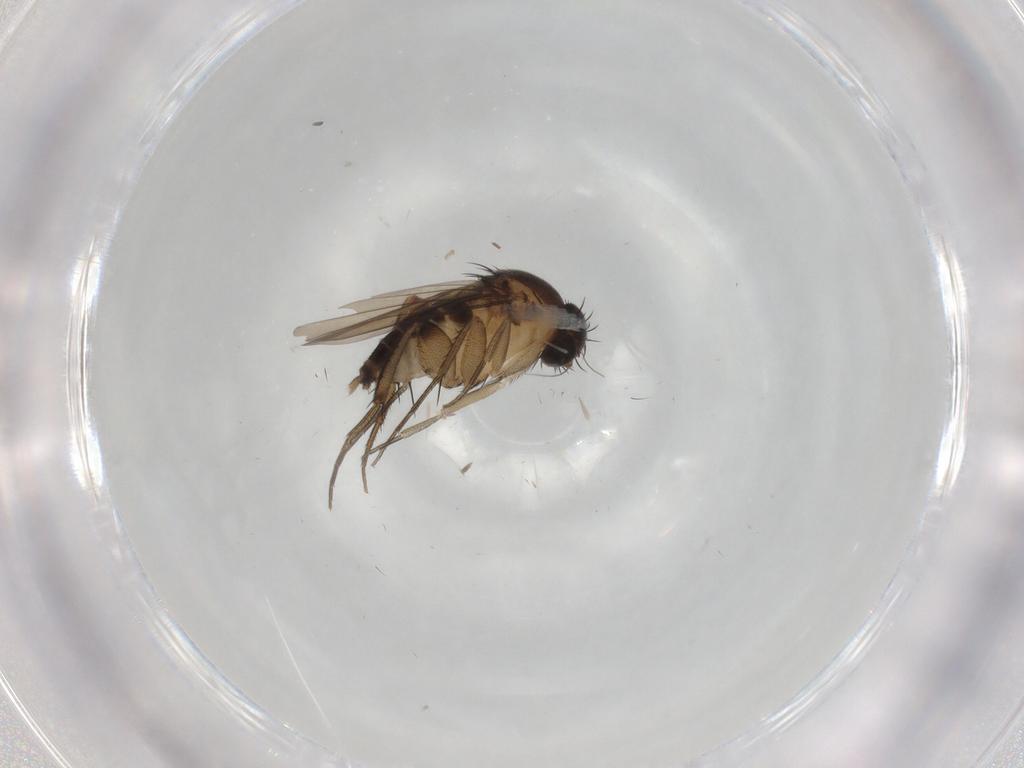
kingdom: Animalia
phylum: Arthropoda
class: Insecta
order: Diptera
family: Phoridae
